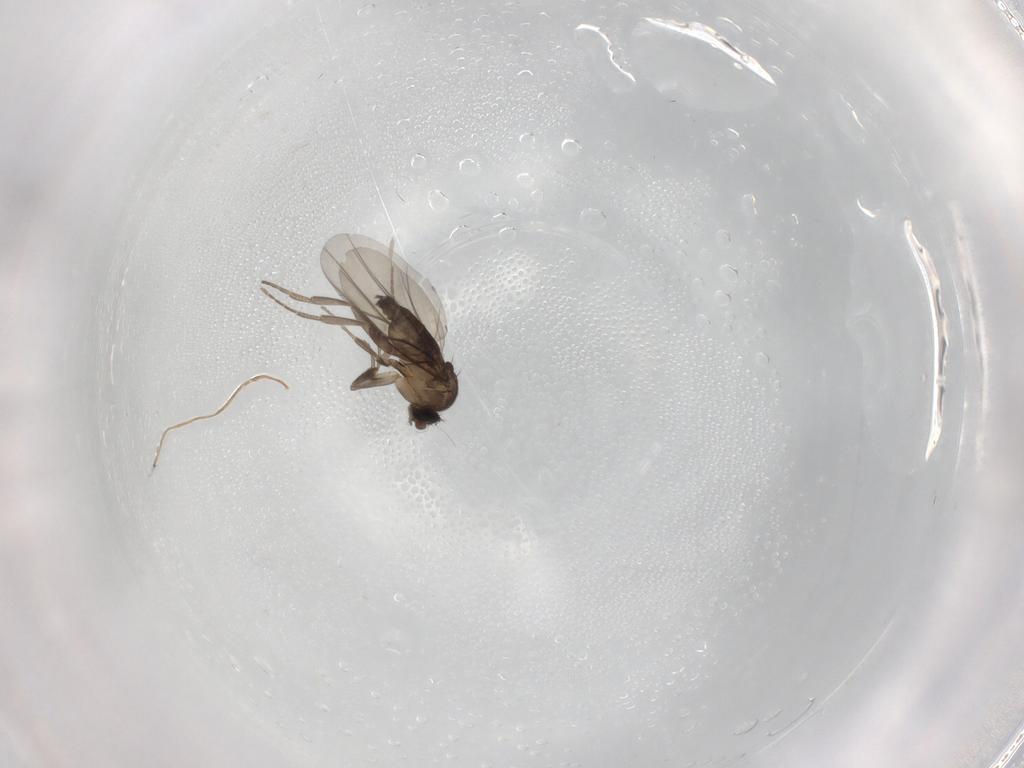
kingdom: Animalia
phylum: Arthropoda
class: Insecta
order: Diptera
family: Phoridae
